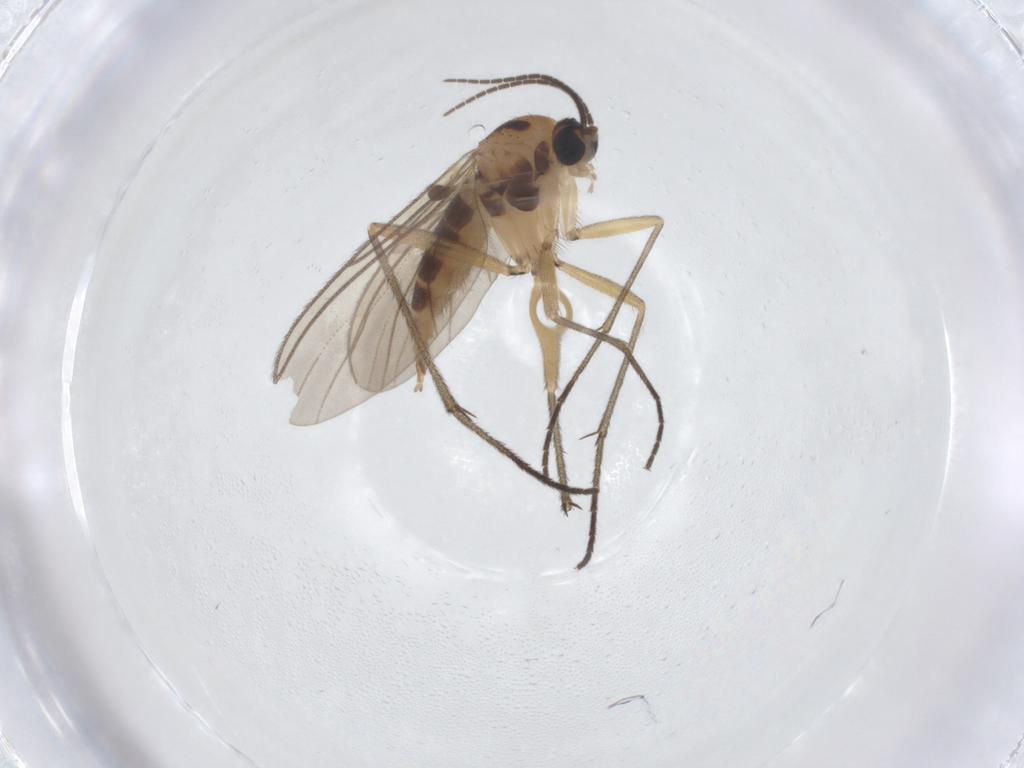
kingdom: Animalia
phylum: Arthropoda
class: Insecta
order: Diptera
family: Sciaridae
